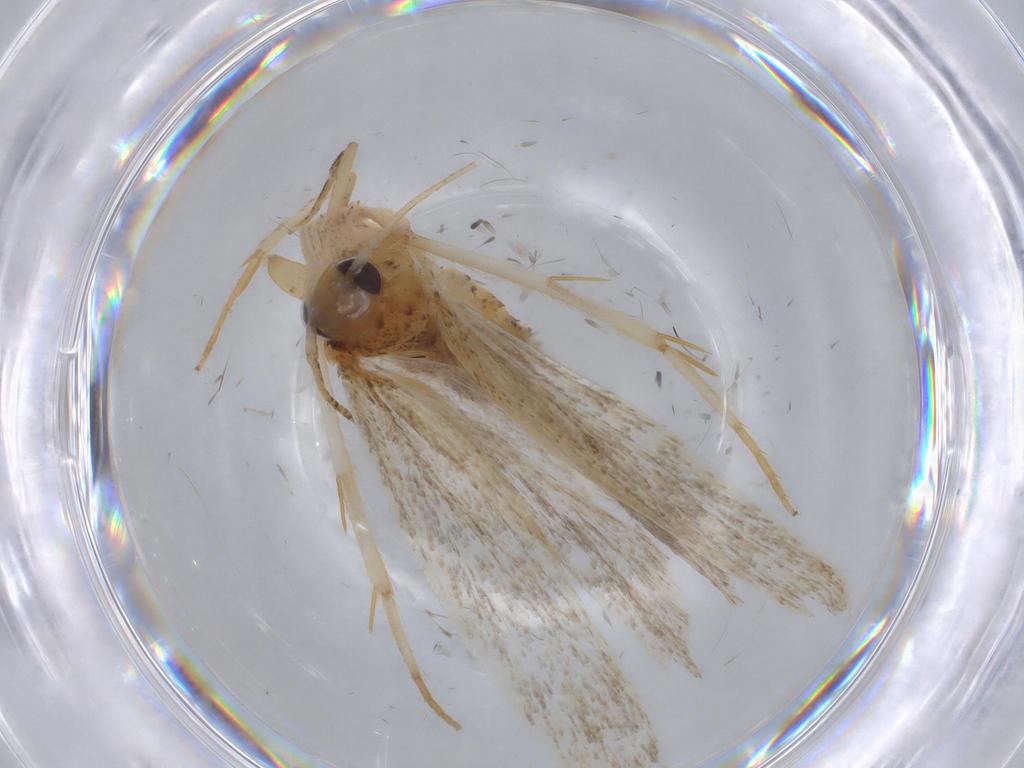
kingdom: Animalia
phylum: Arthropoda
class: Insecta
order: Lepidoptera
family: Autostichidae
